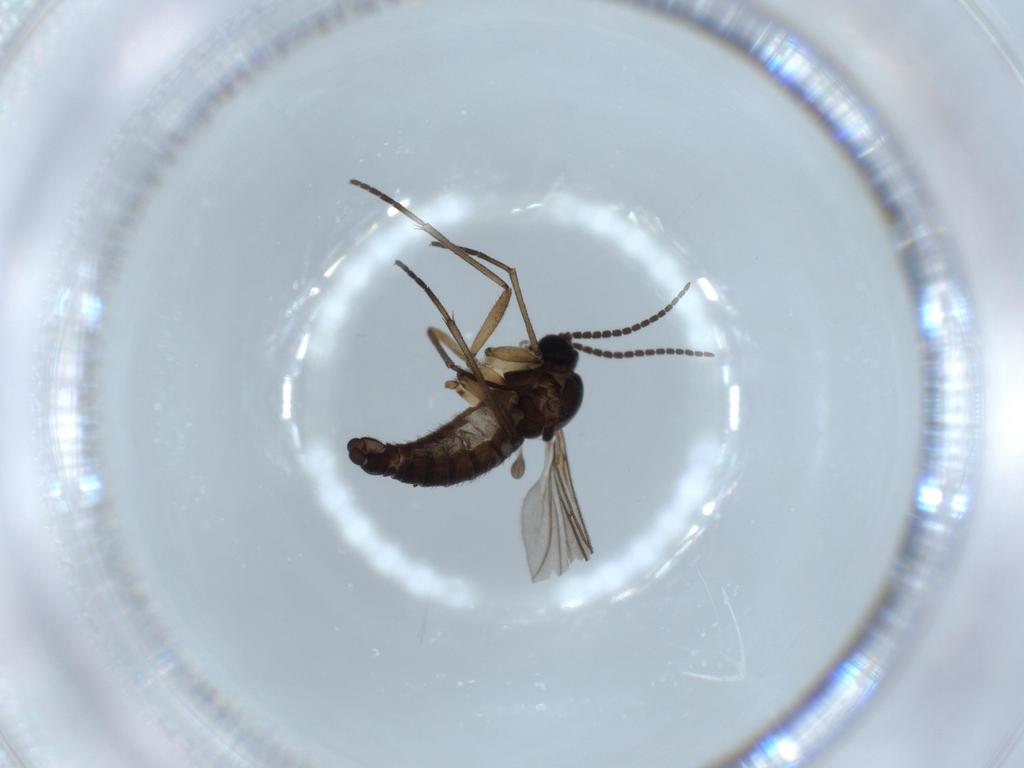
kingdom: Animalia
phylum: Arthropoda
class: Insecta
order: Diptera
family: Sciaridae
